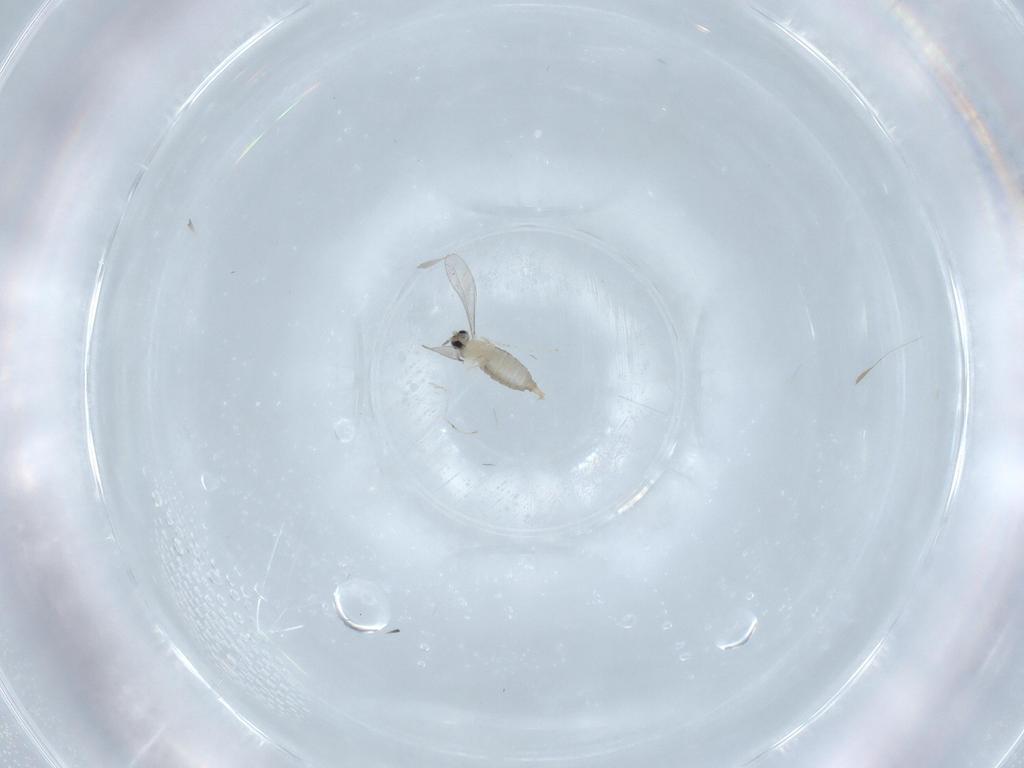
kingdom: Animalia
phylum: Arthropoda
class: Insecta
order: Diptera
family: Cecidomyiidae
